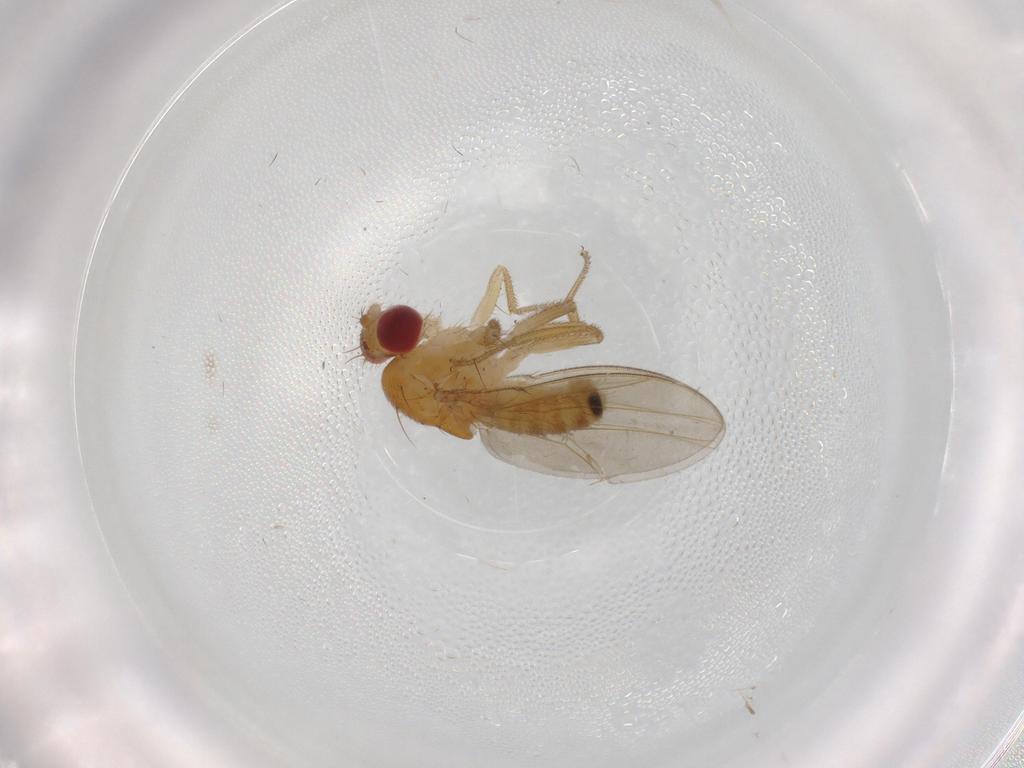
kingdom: Animalia
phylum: Arthropoda
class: Insecta
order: Diptera
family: Drosophilidae
